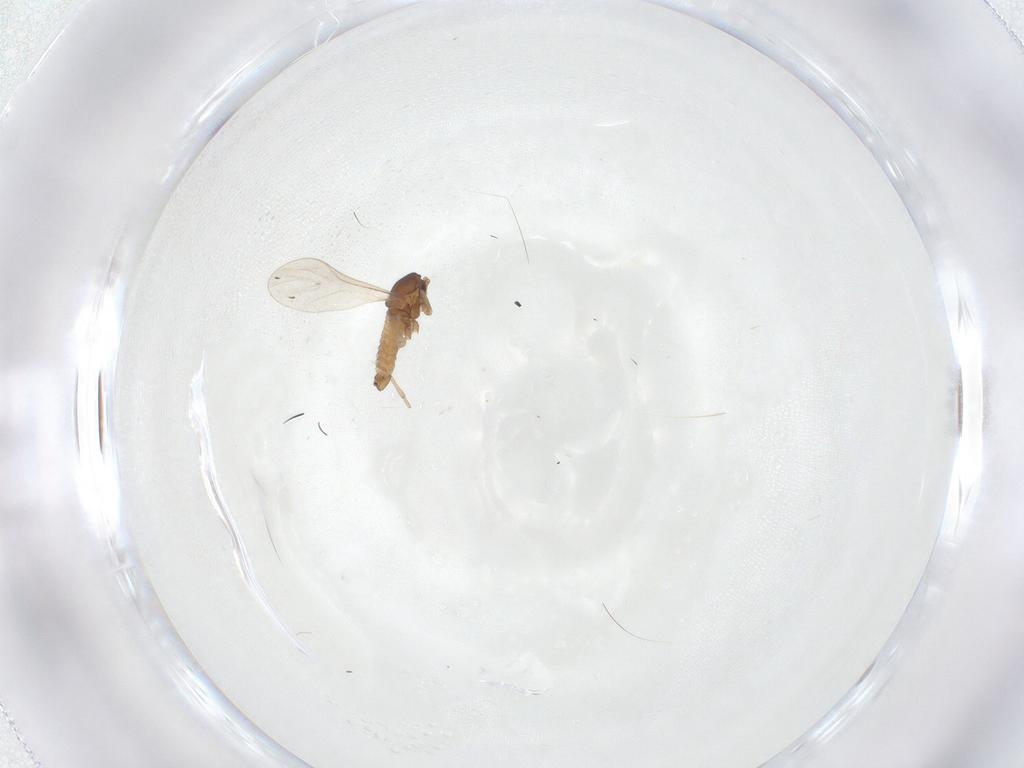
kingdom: Animalia
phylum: Arthropoda
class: Insecta
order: Diptera
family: Cecidomyiidae
